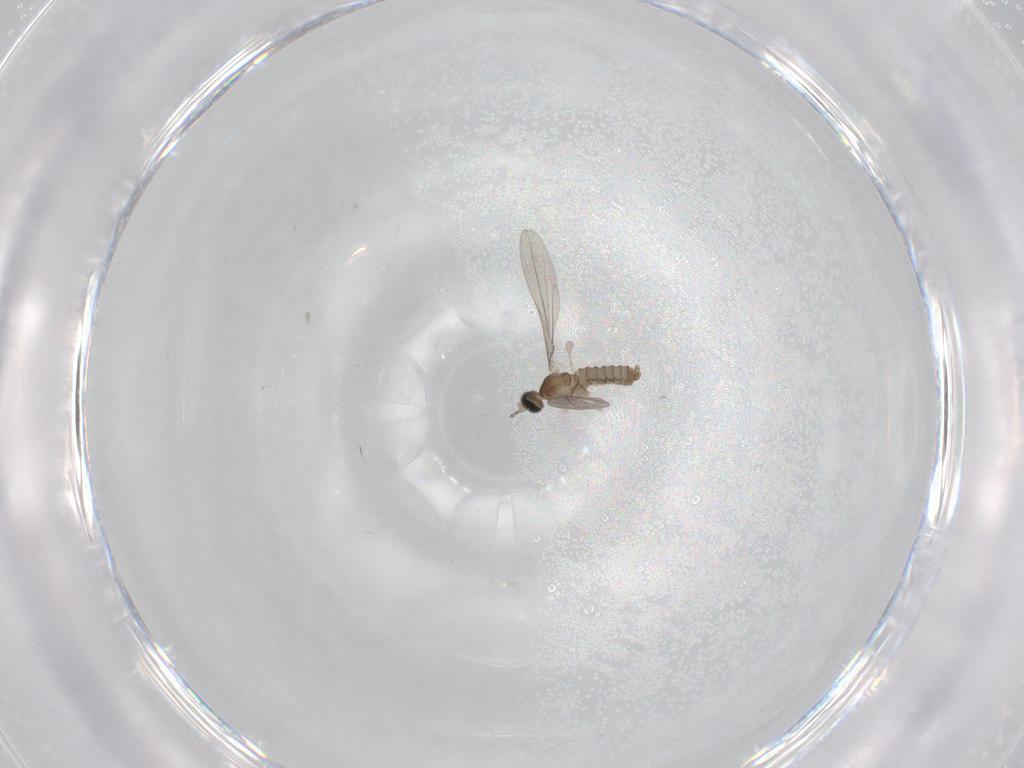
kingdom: Animalia
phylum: Arthropoda
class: Insecta
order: Diptera
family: Cecidomyiidae
